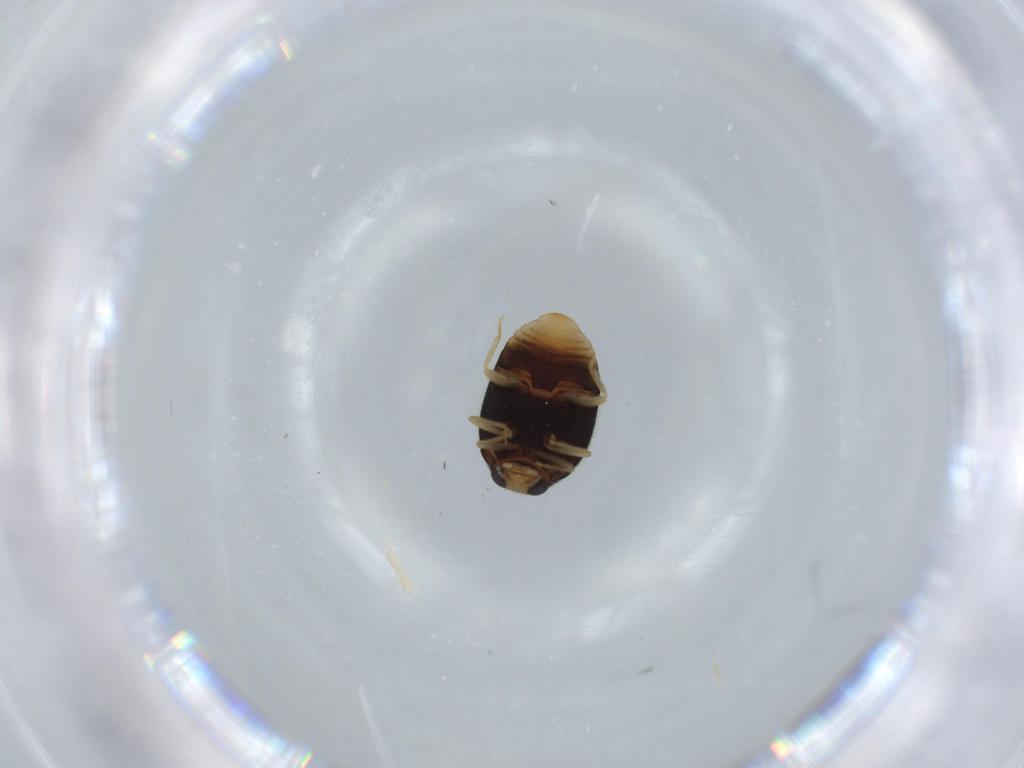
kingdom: Animalia
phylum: Arthropoda
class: Insecta
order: Coleoptera
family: Coccinellidae
